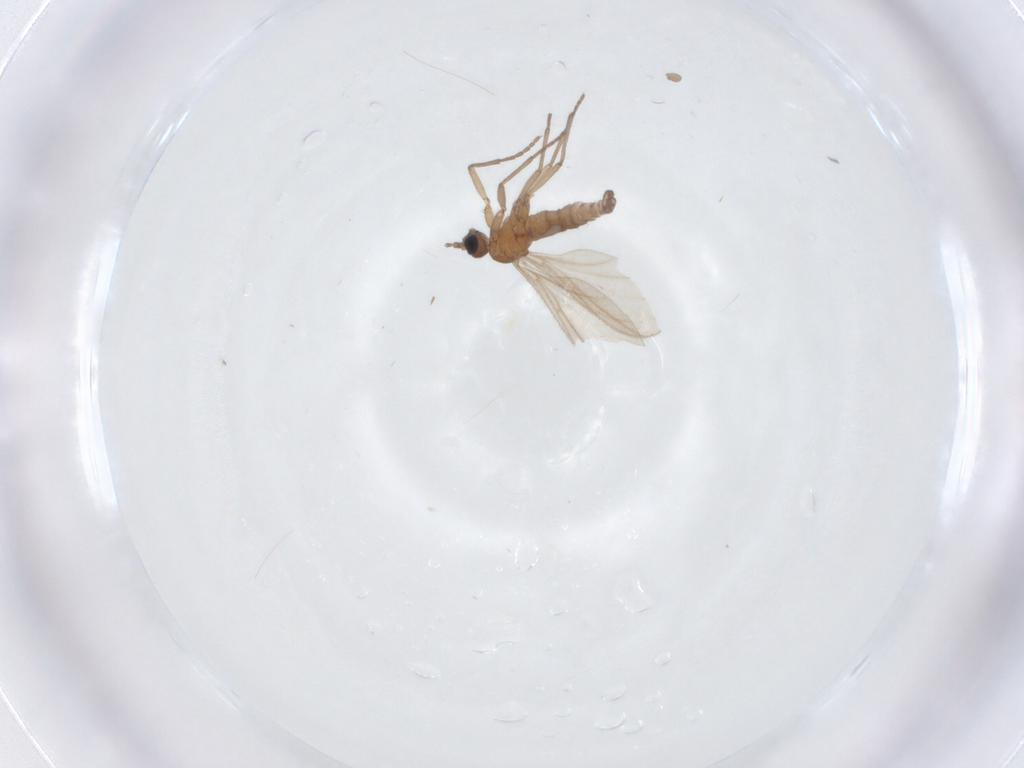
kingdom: Animalia
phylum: Arthropoda
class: Insecta
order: Diptera
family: Sciaridae
